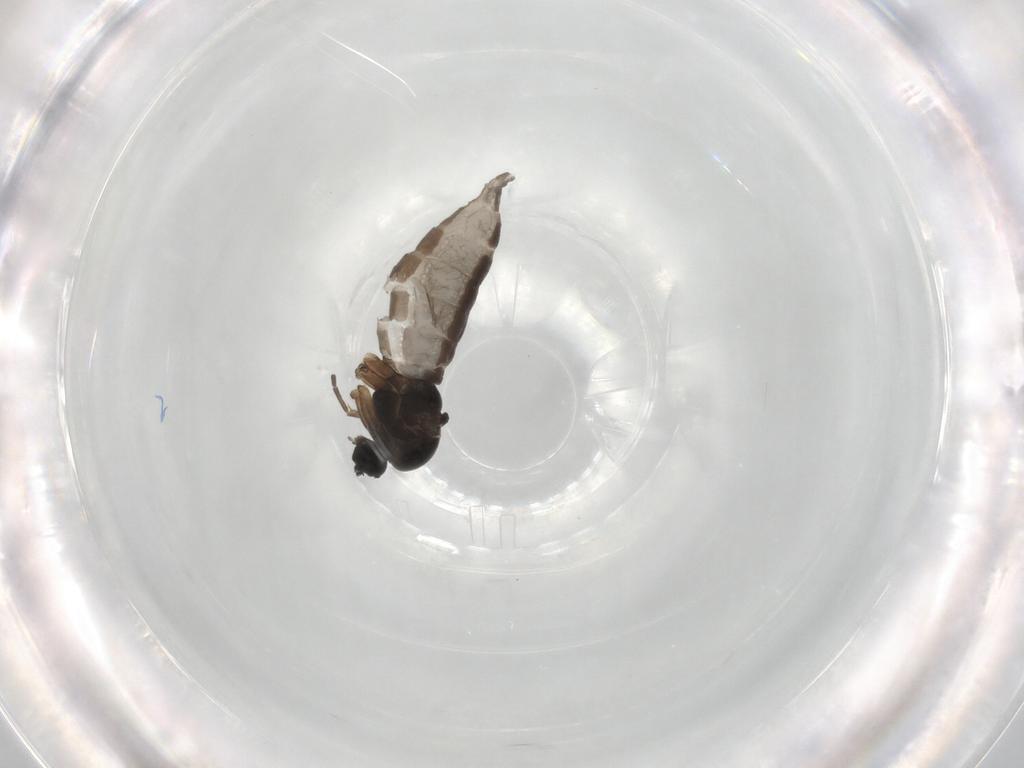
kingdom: Animalia
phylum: Arthropoda
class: Insecta
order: Diptera
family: Sciaridae
